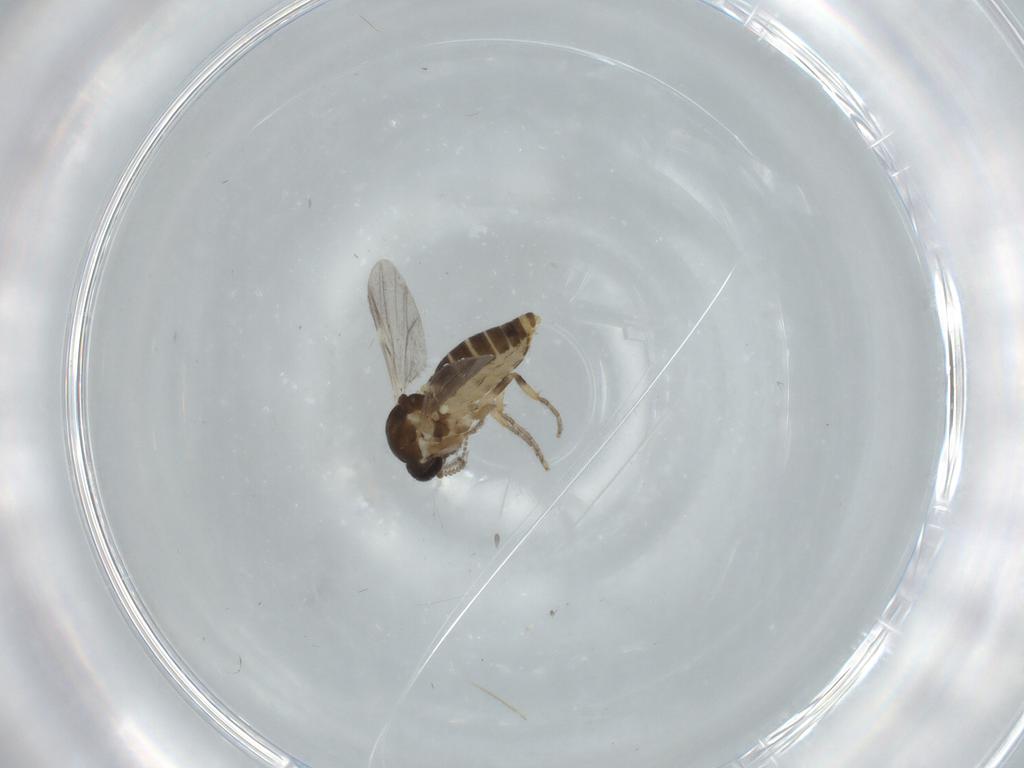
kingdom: Animalia
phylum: Arthropoda
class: Insecta
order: Diptera
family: Ceratopogonidae
